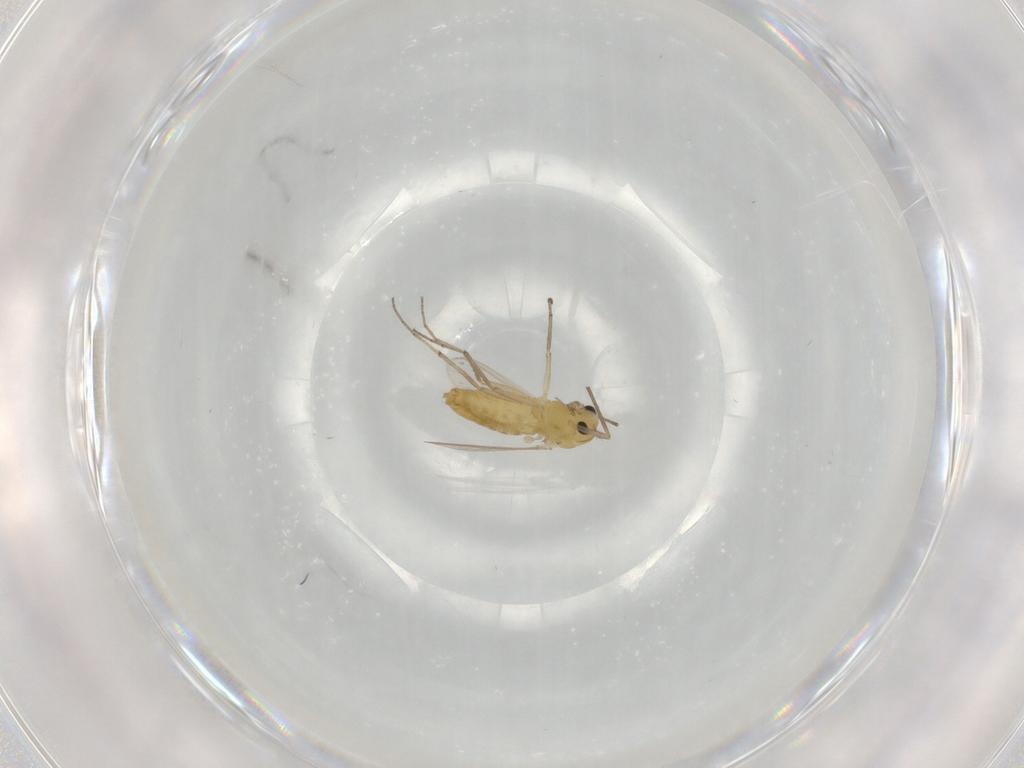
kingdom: Animalia
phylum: Arthropoda
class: Insecta
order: Diptera
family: Chironomidae
